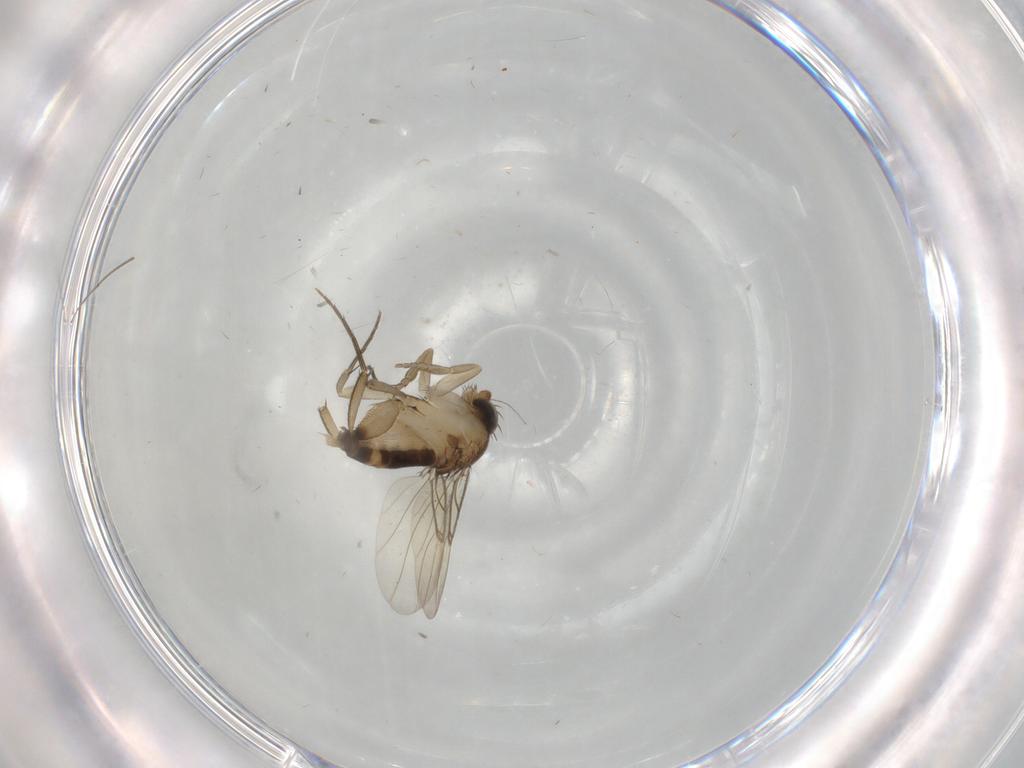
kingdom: Animalia
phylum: Arthropoda
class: Insecta
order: Diptera
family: Phoridae
